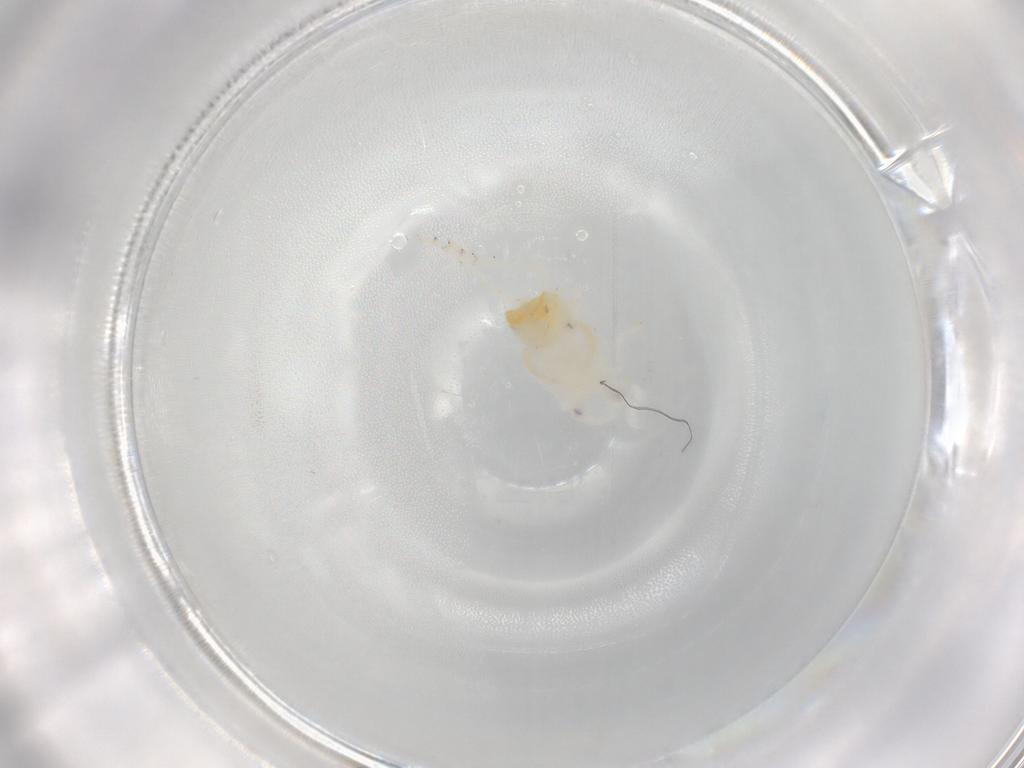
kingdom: Animalia
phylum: Arthropoda
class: Insecta
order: Hemiptera
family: Flatidae
